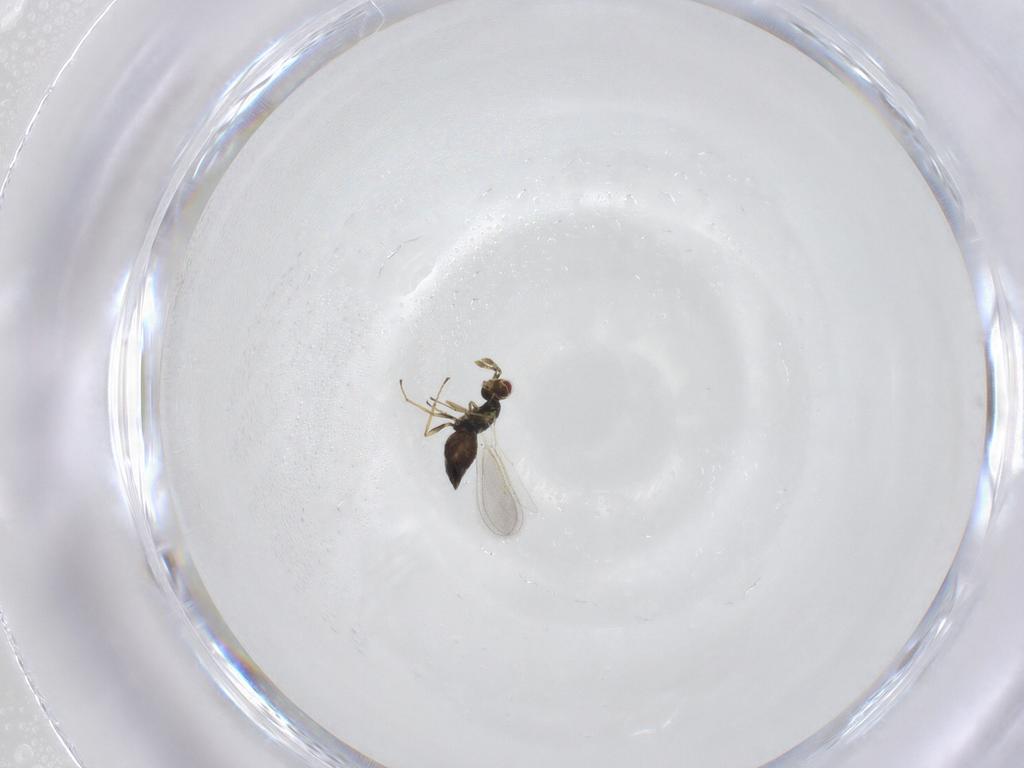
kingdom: Animalia
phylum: Arthropoda
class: Insecta
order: Hymenoptera
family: Eulophidae
